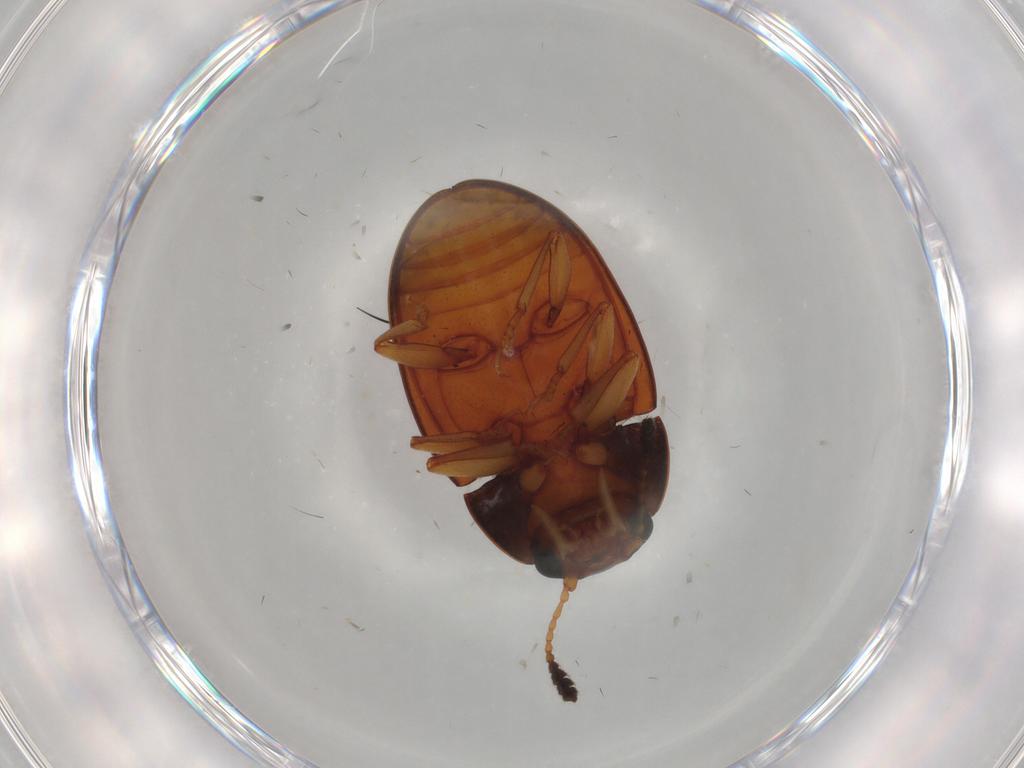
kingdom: Animalia
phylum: Arthropoda
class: Insecta
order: Coleoptera
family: Erotylidae
